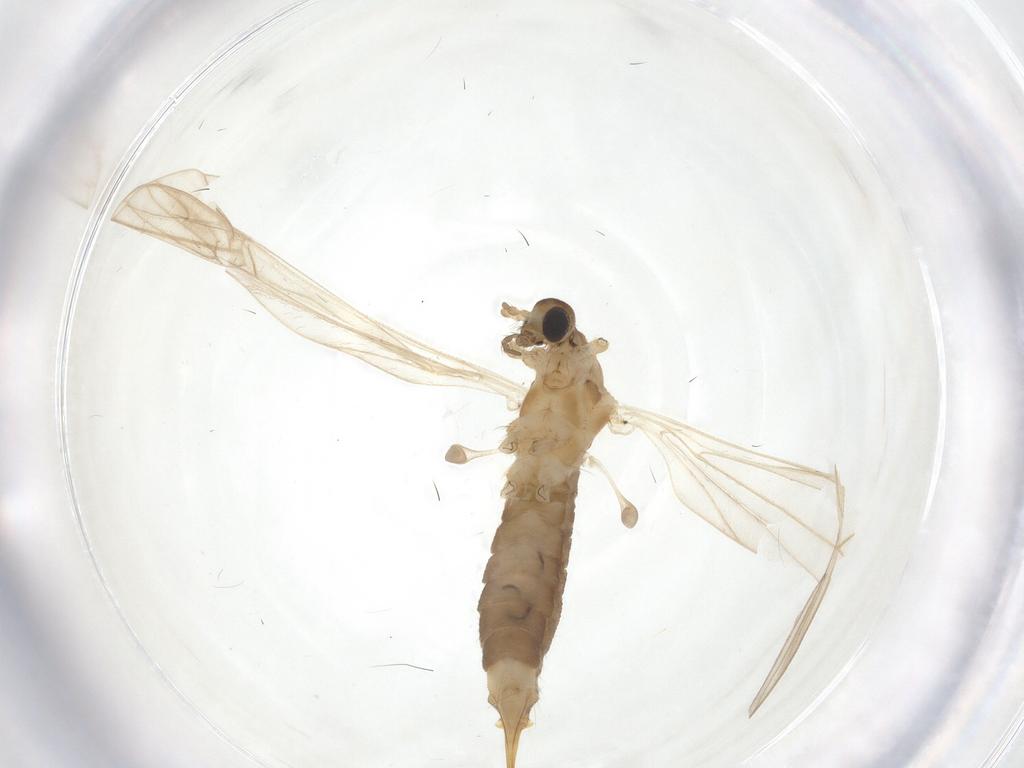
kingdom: Animalia
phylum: Arthropoda
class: Insecta
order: Diptera
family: Limoniidae
